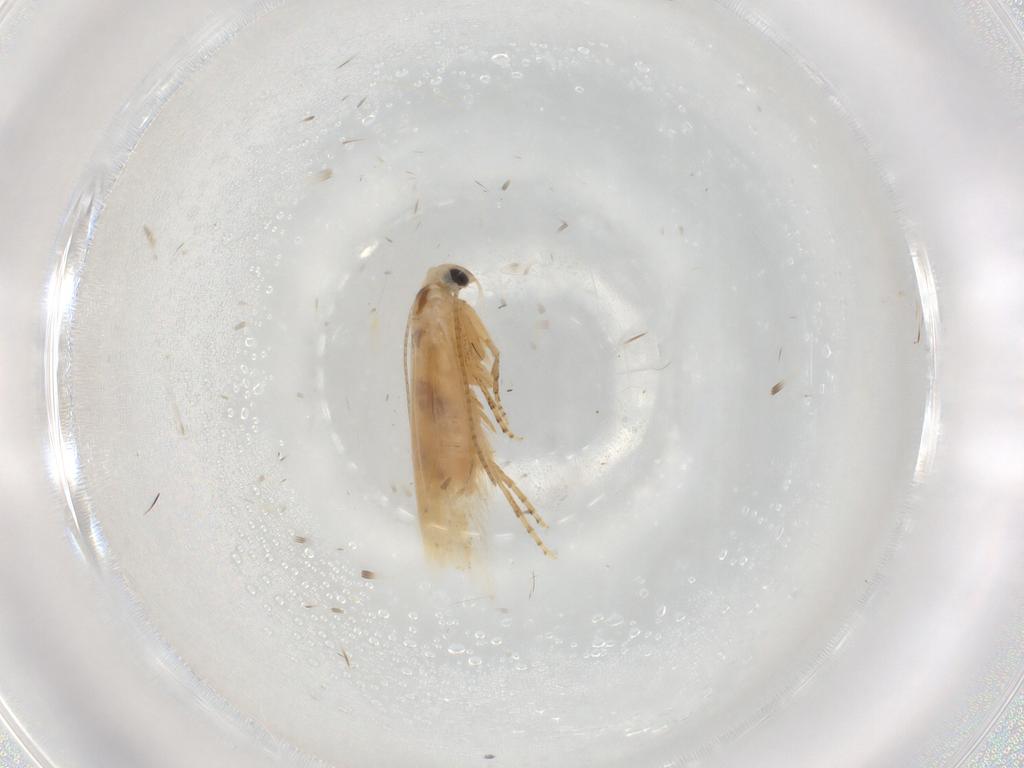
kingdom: Animalia
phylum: Arthropoda
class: Insecta
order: Lepidoptera
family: Bucculatricidae
